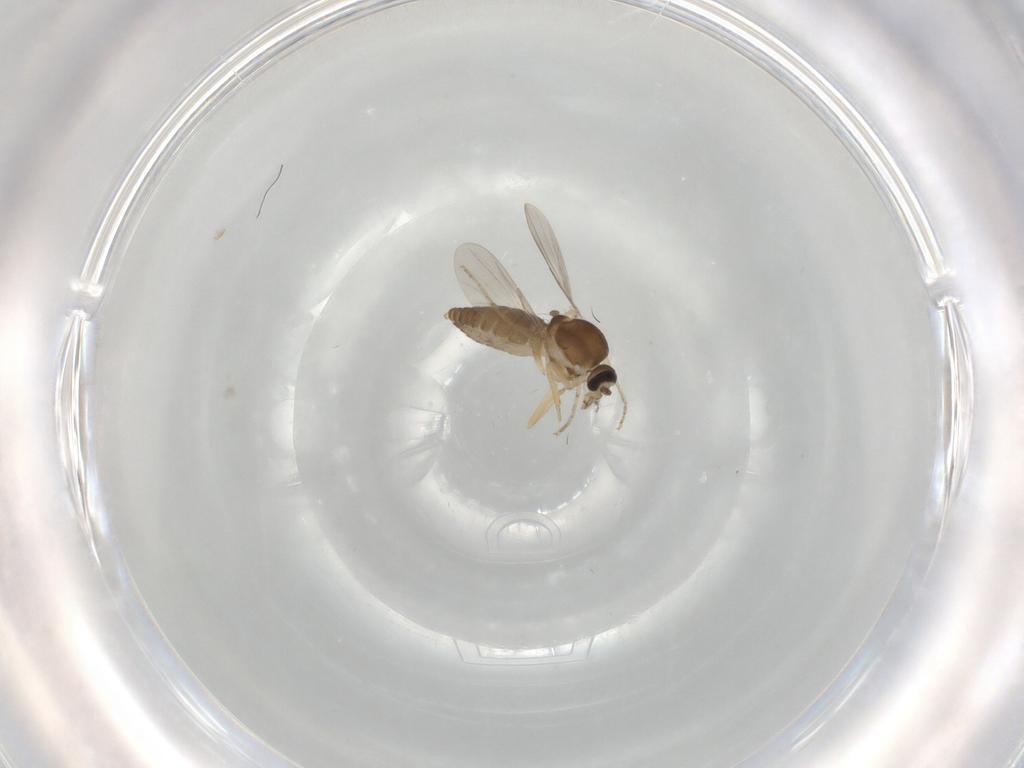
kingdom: Animalia
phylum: Arthropoda
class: Insecta
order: Diptera
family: Ceratopogonidae
